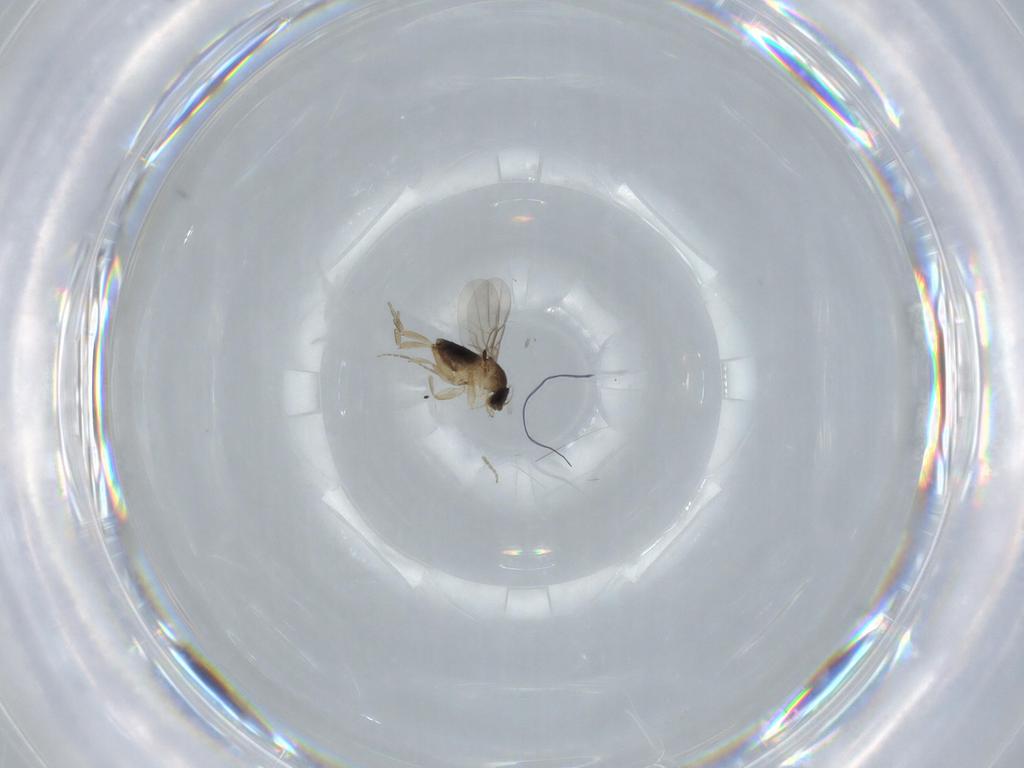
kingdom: Animalia
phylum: Arthropoda
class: Insecta
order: Diptera
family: Phoridae
